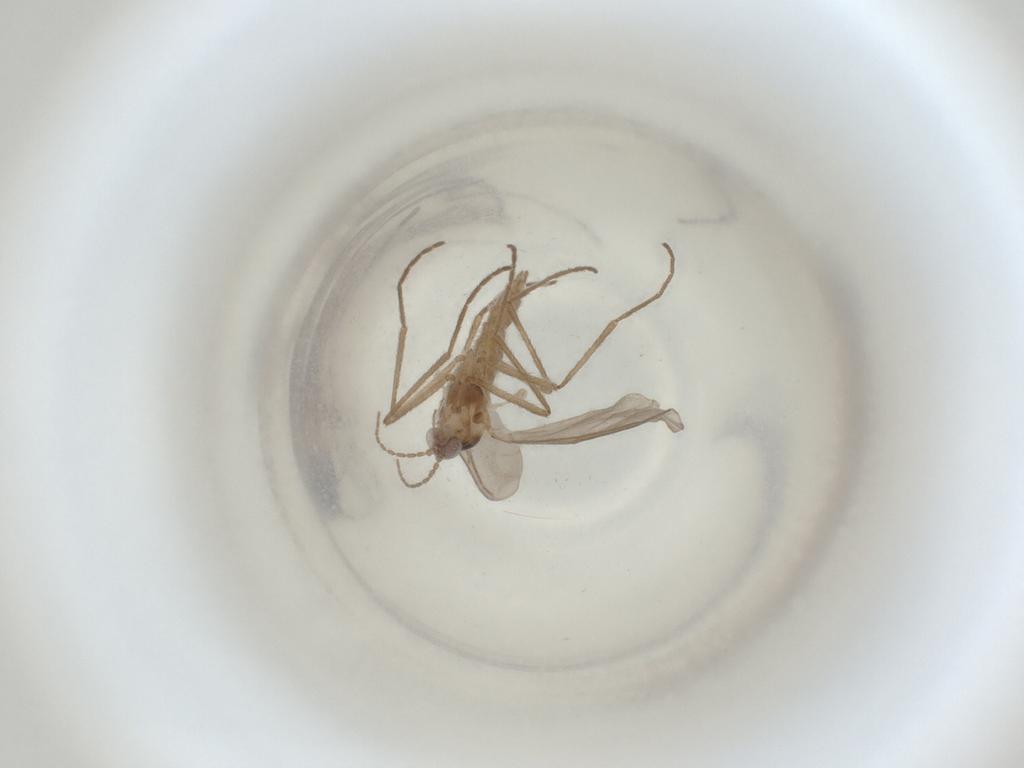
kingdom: Animalia
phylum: Arthropoda
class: Insecta
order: Diptera
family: Cecidomyiidae
